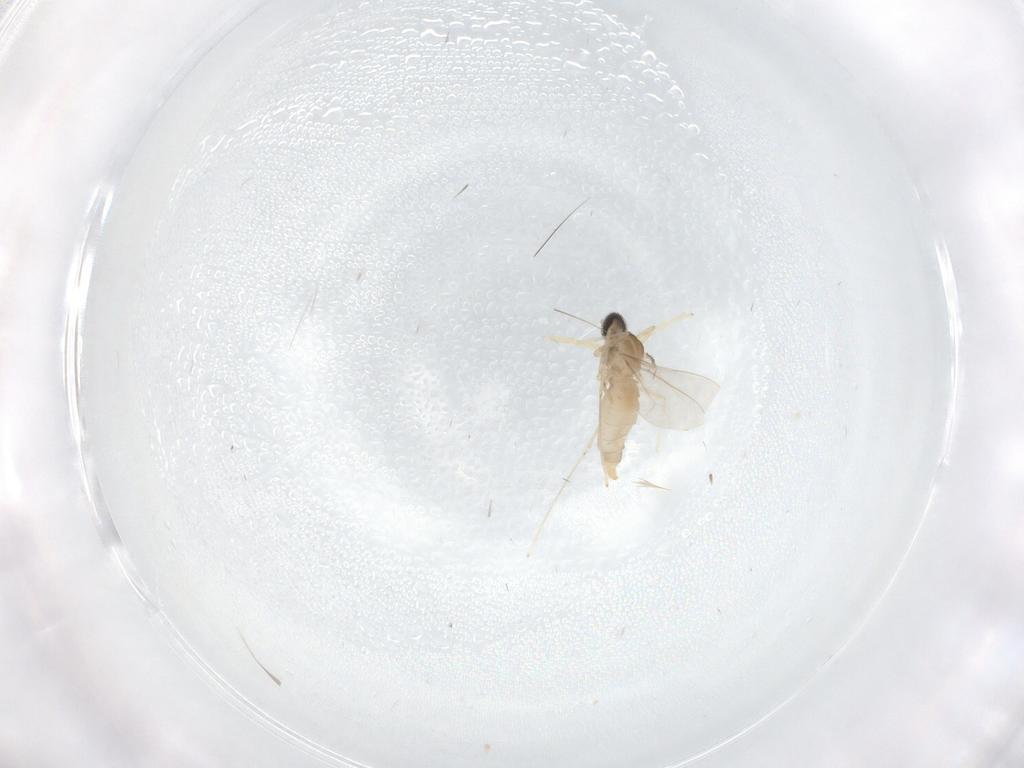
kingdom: Animalia
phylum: Arthropoda
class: Insecta
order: Diptera
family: Cecidomyiidae
